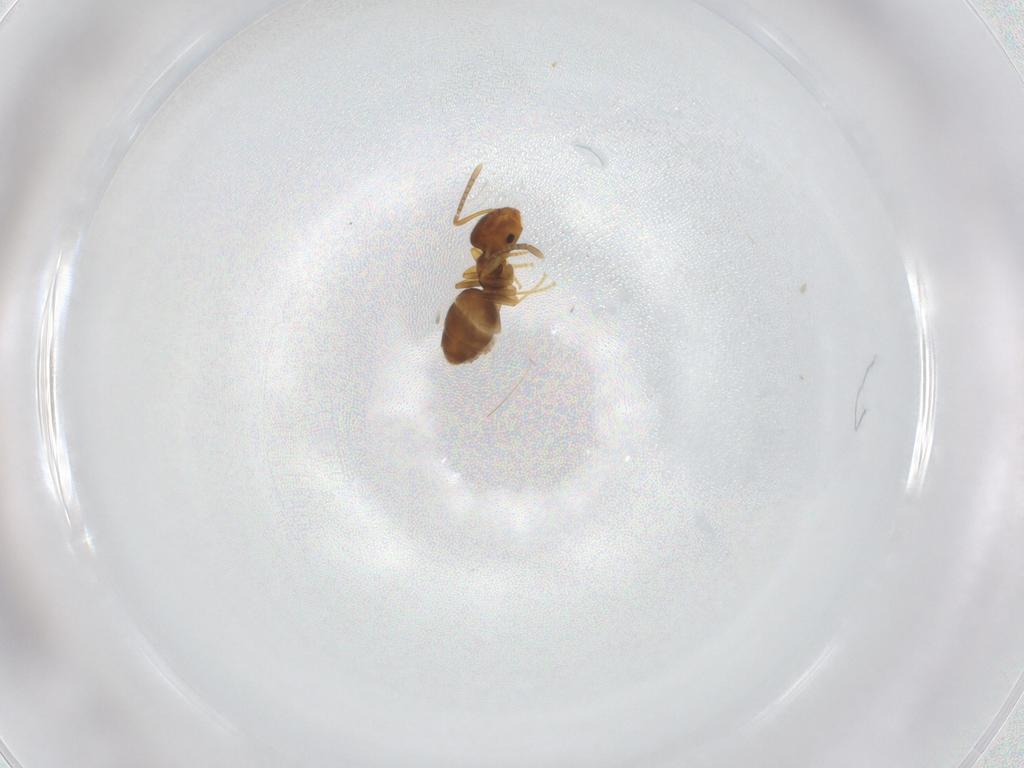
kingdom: Animalia
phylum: Arthropoda
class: Insecta
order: Hymenoptera
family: Formicidae
